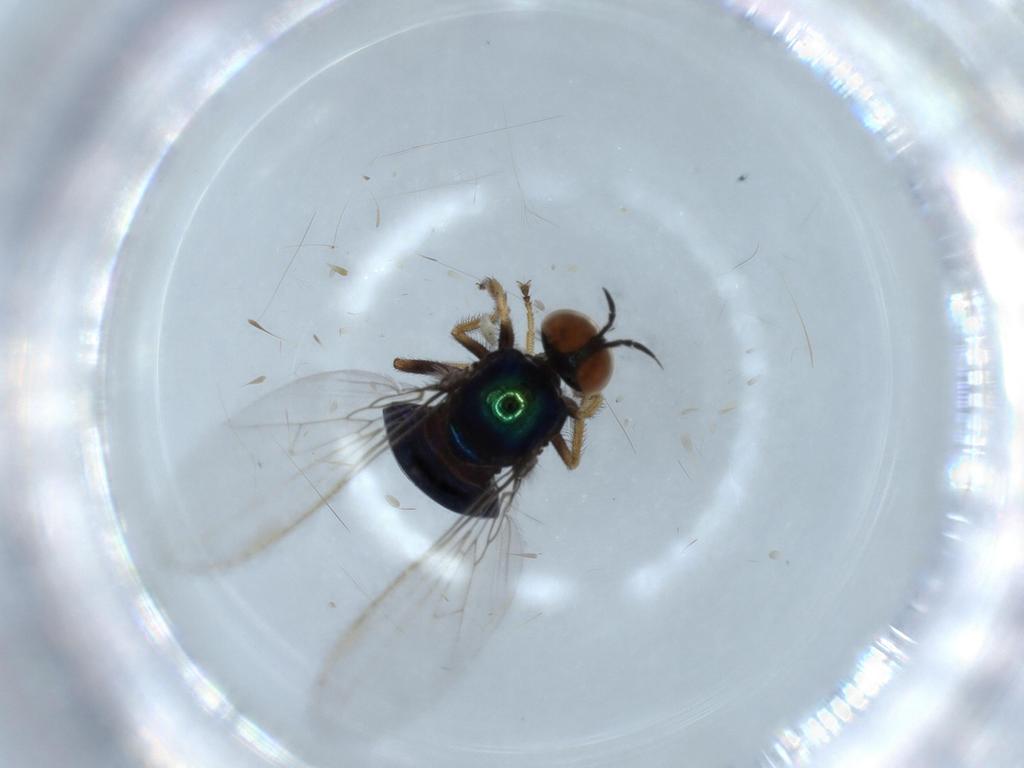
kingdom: Animalia
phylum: Arthropoda
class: Insecta
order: Diptera
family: Empididae
